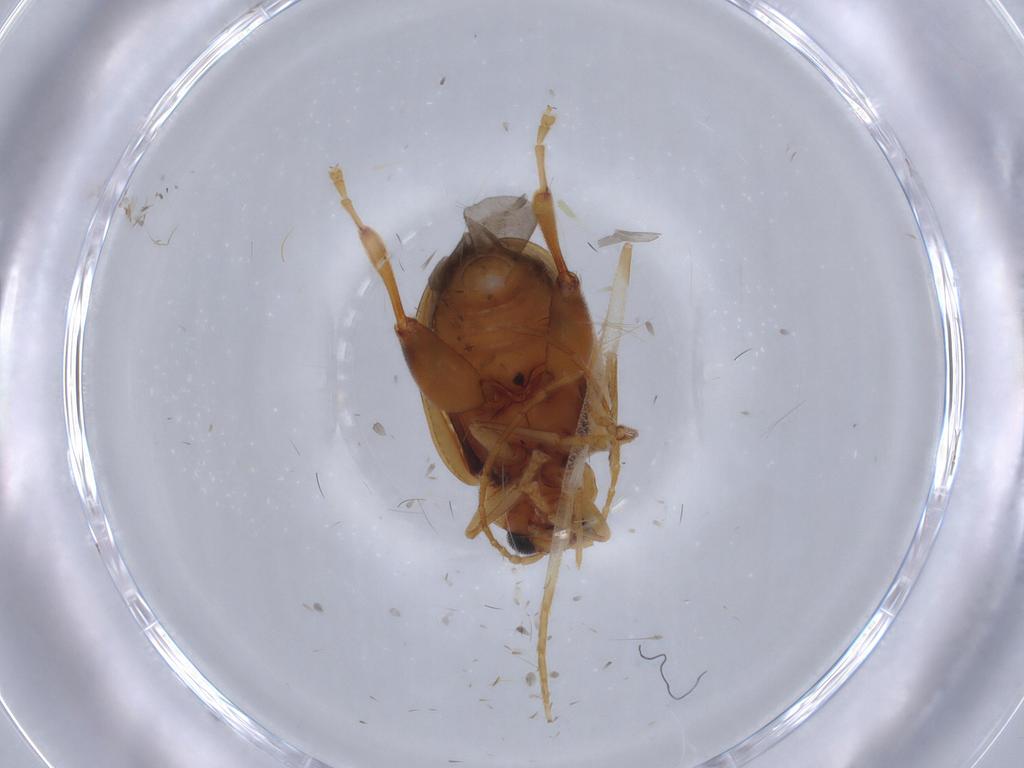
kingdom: Animalia
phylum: Arthropoda
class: Insecta
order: Coleoptera
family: Chrysomelidae
